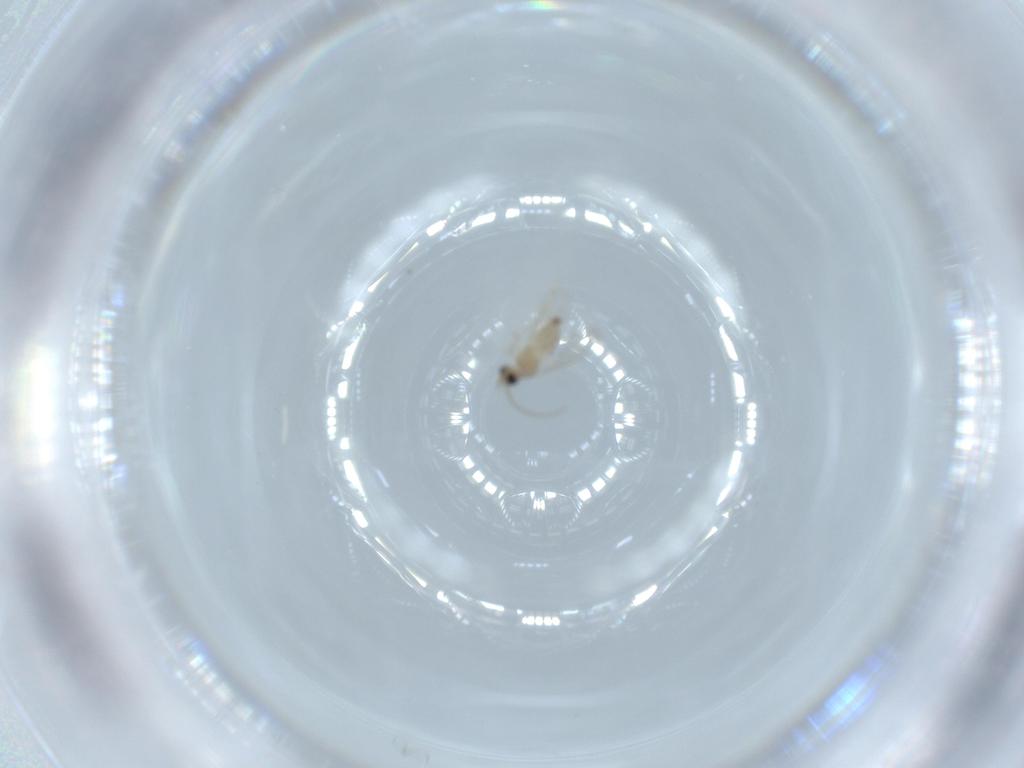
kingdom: Animalia
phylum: Arthropoda
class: Insecta
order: Diptera
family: Cecidomyiidae
